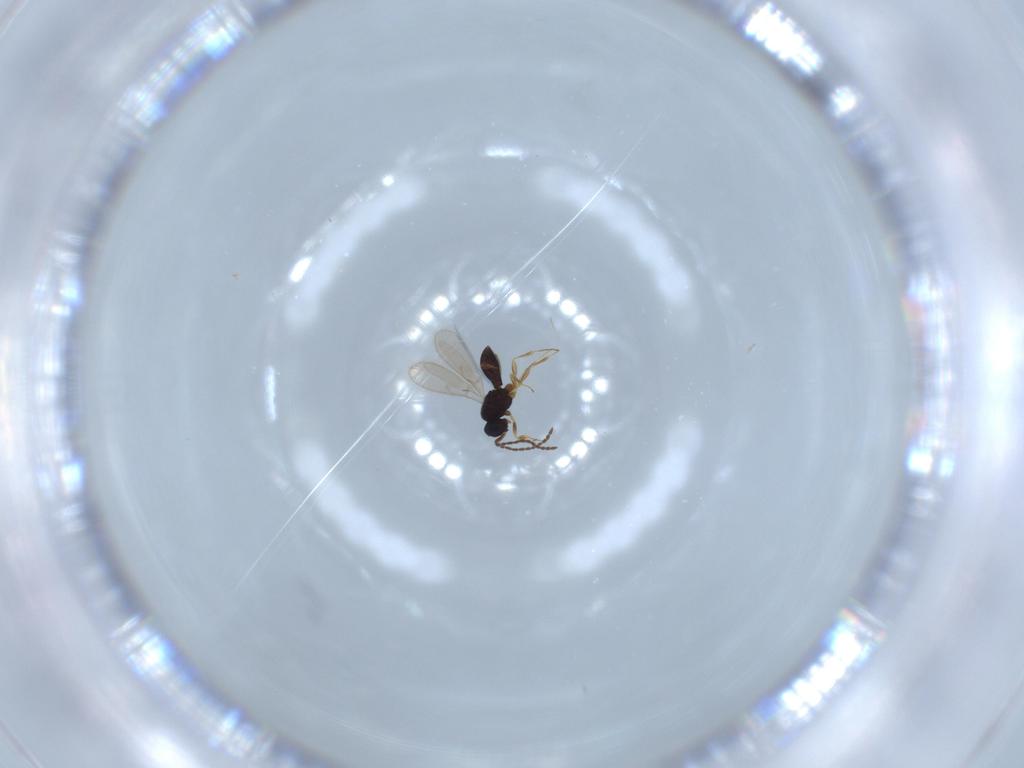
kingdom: Animalia
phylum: Arthropoda
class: Insecta
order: Hymenoptera
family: Scelionidae
